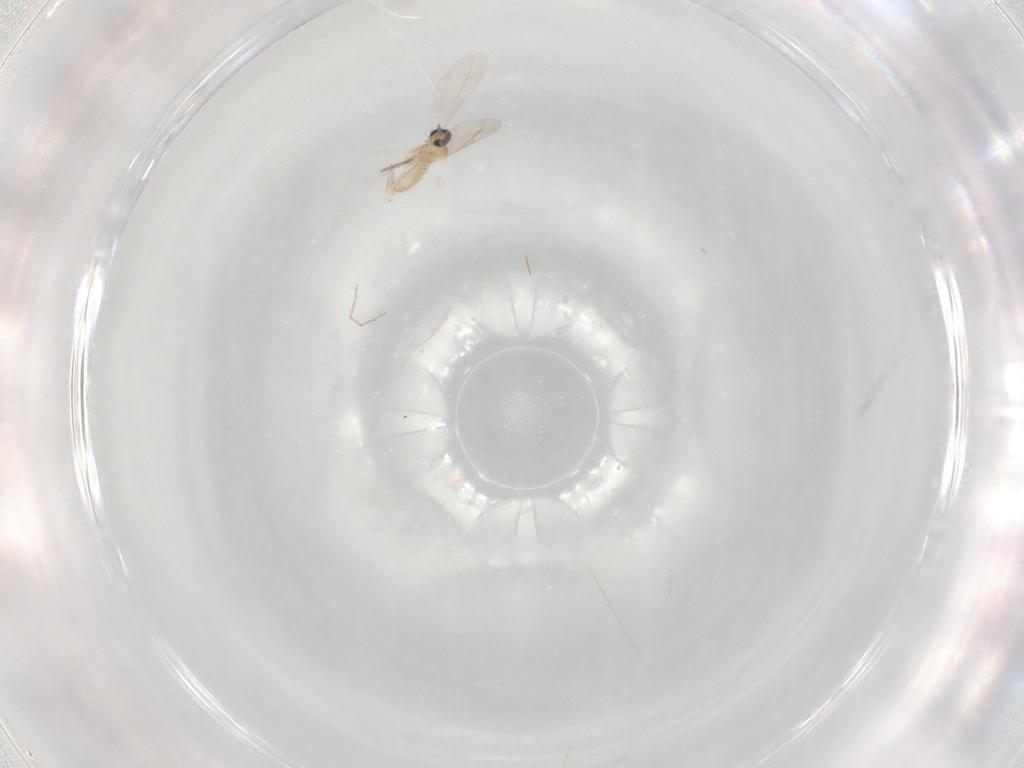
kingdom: Animalia
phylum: Arthropoda
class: Insecta
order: Diptera
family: Cecidomyiidae
